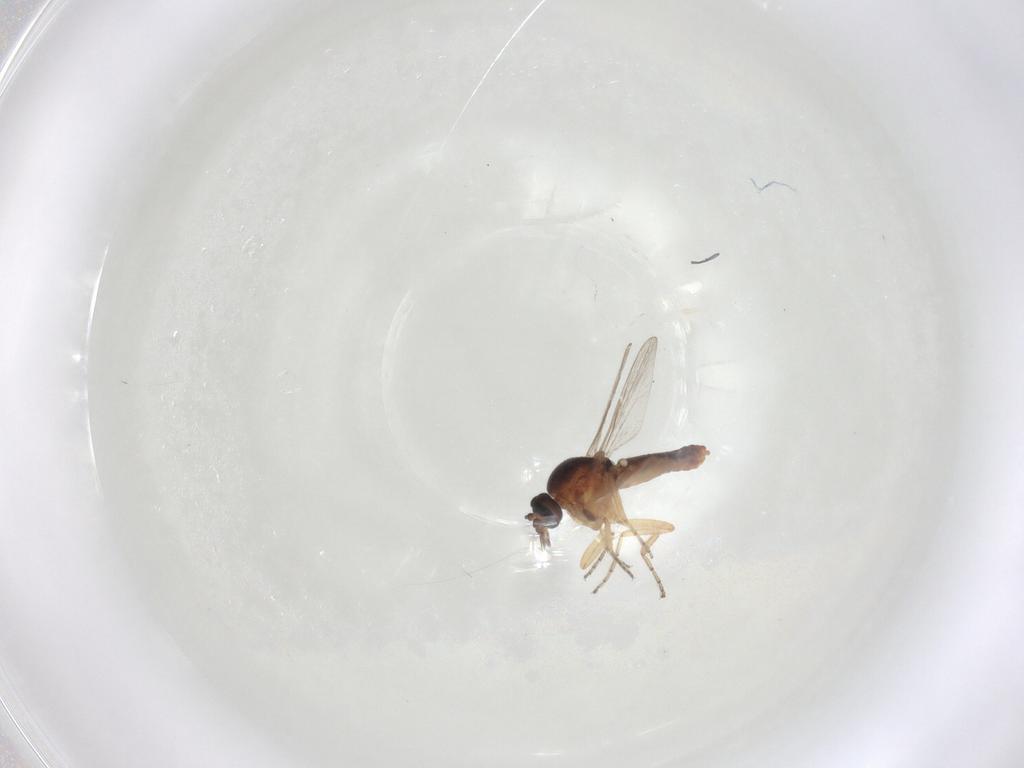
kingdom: Animalia
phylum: Arthropoda
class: Insecta
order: Diptera
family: Ceratopogonidae
